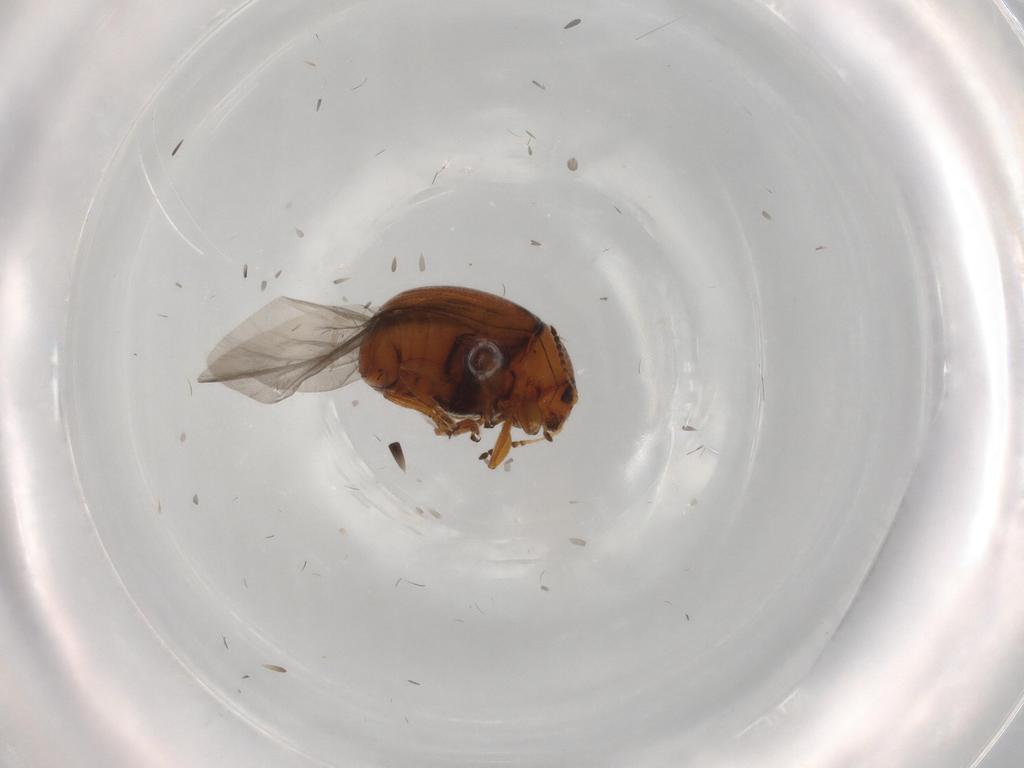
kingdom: Animalia
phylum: Arthropoda
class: Insecta
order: Coleoptera
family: Chrysomelidae
